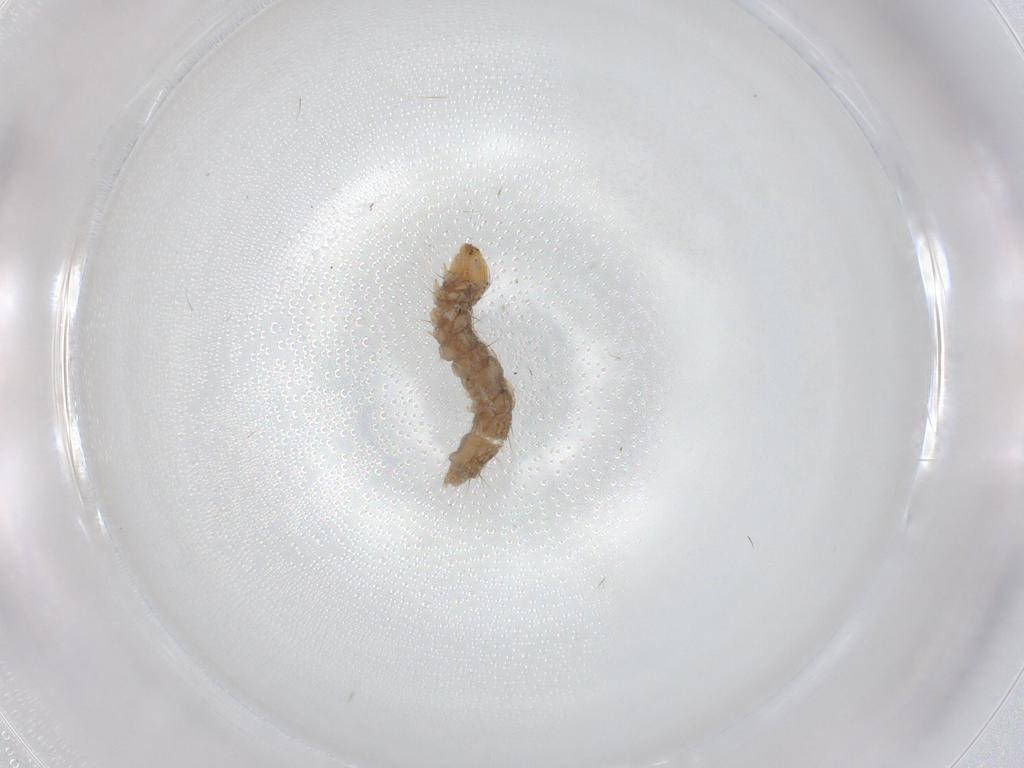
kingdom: Animalia
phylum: Arthropoda
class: Insecta
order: Lepidoptera
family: Bucculatricidae
